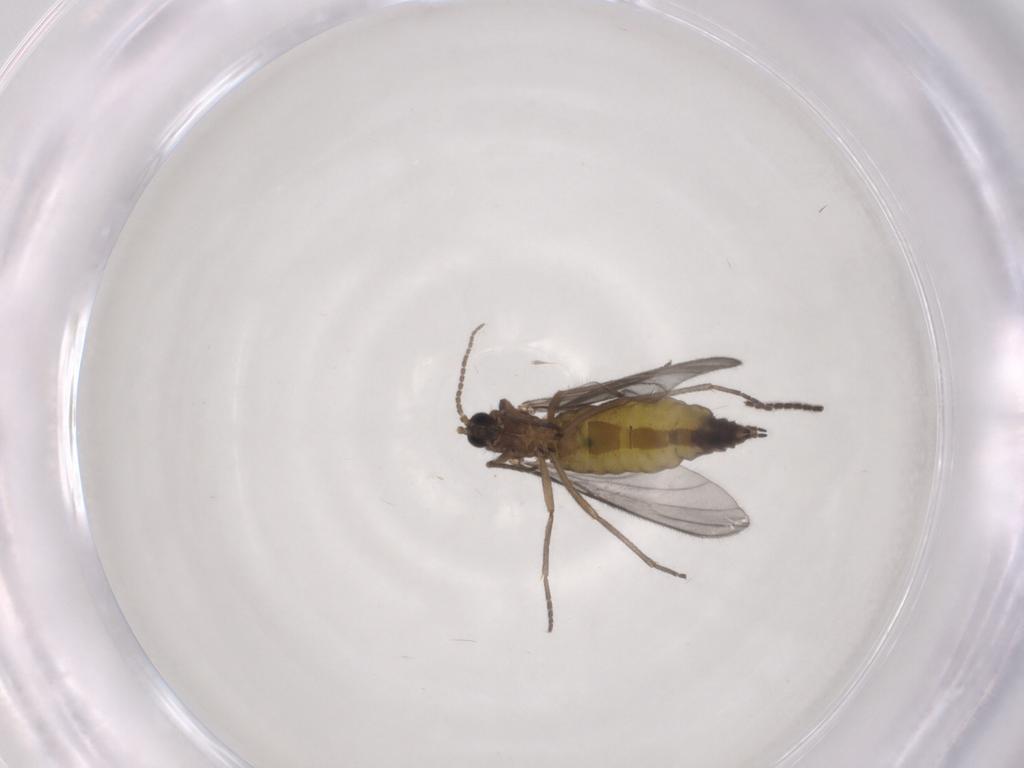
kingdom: Animalia
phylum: Arthropoda
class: Insecta
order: Diptera
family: Sciaridae
